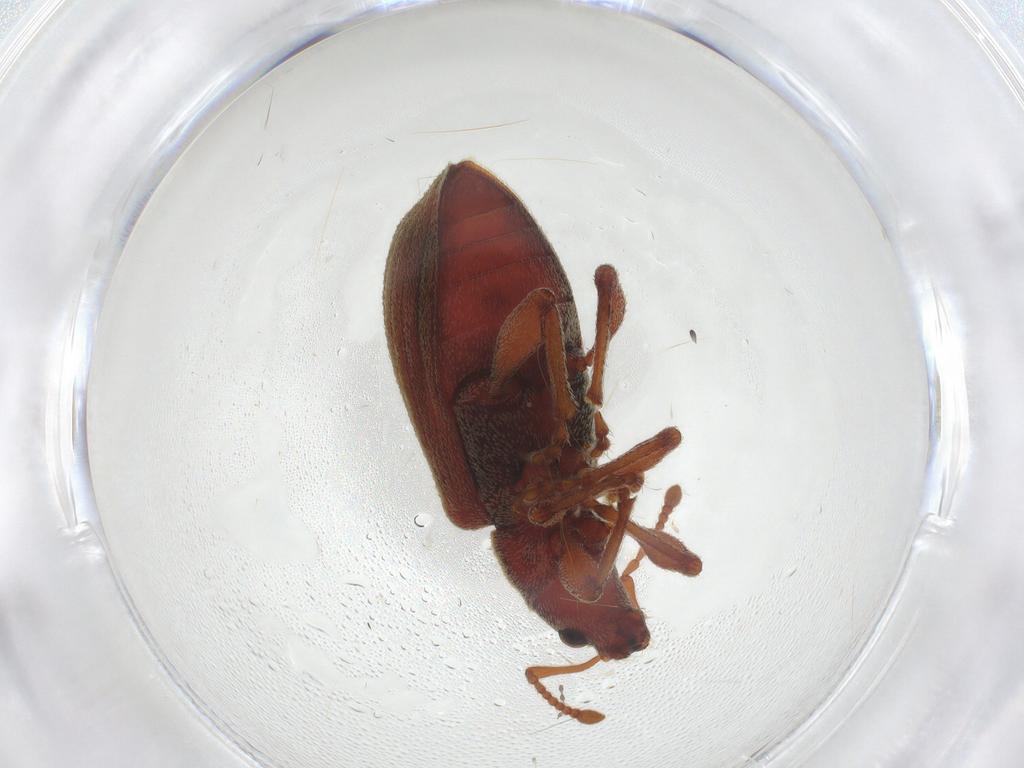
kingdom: Animalia
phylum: Arthropoda
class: Insecta
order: Coleoptera
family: Curculionidae
